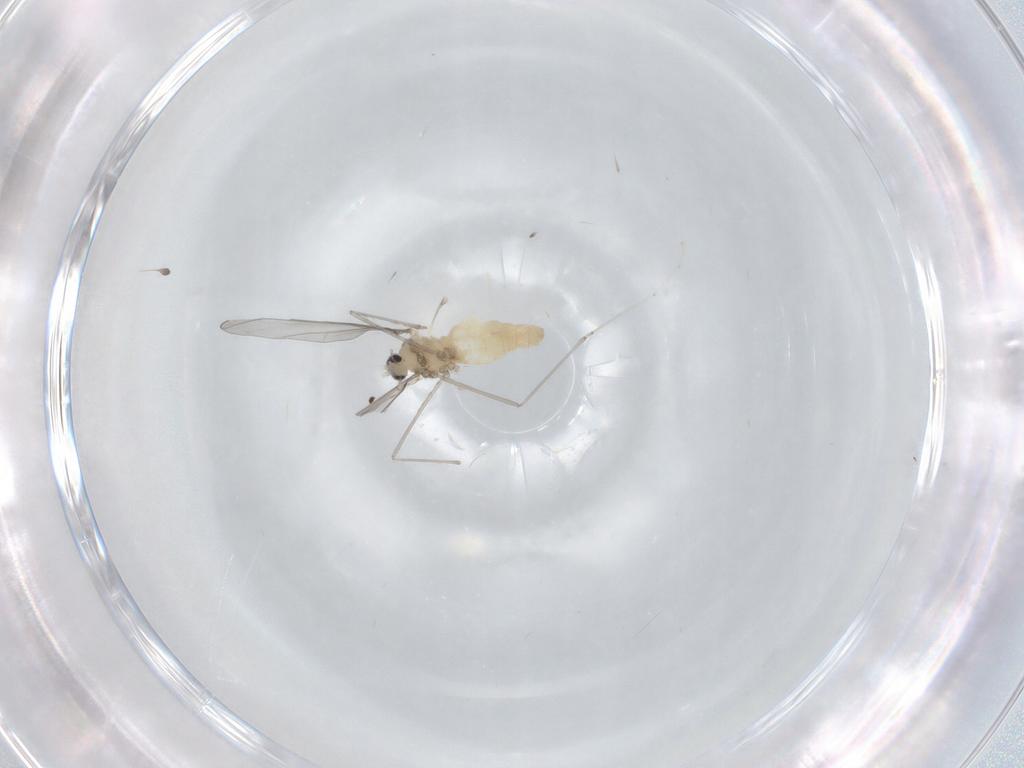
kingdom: Animalia
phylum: Arthropoda
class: Insecta
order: Diptera
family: Cecidomyiidae
